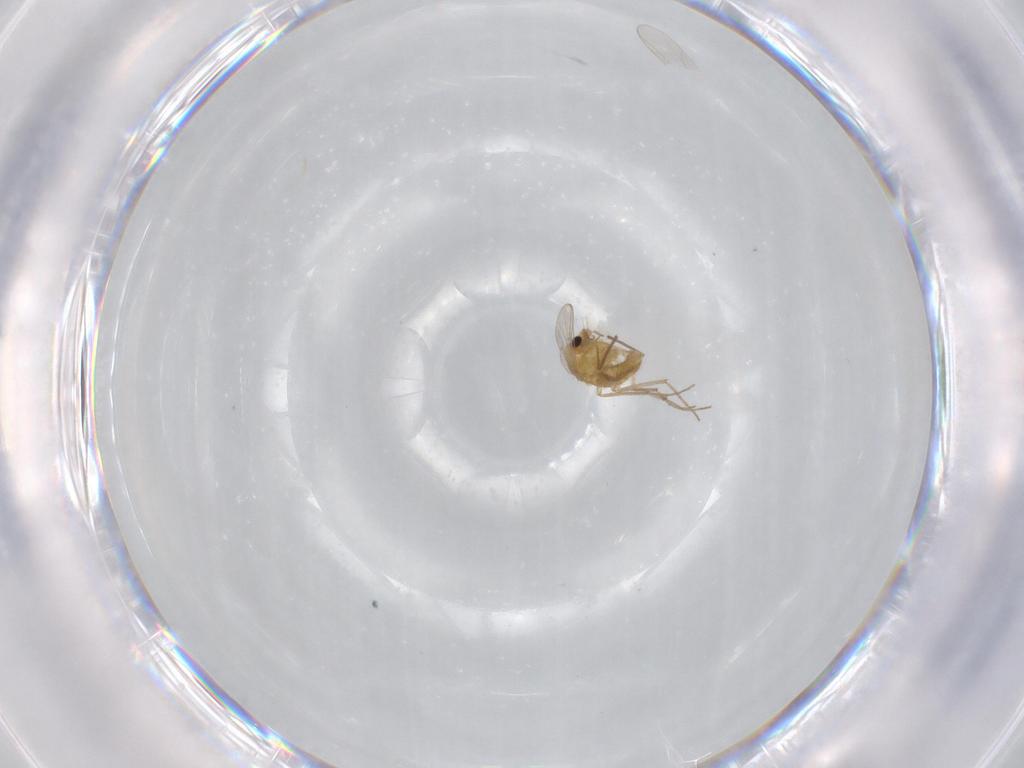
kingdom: Animalia
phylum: Arthropoda
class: Insecta
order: Diptera
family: Chironomidae
